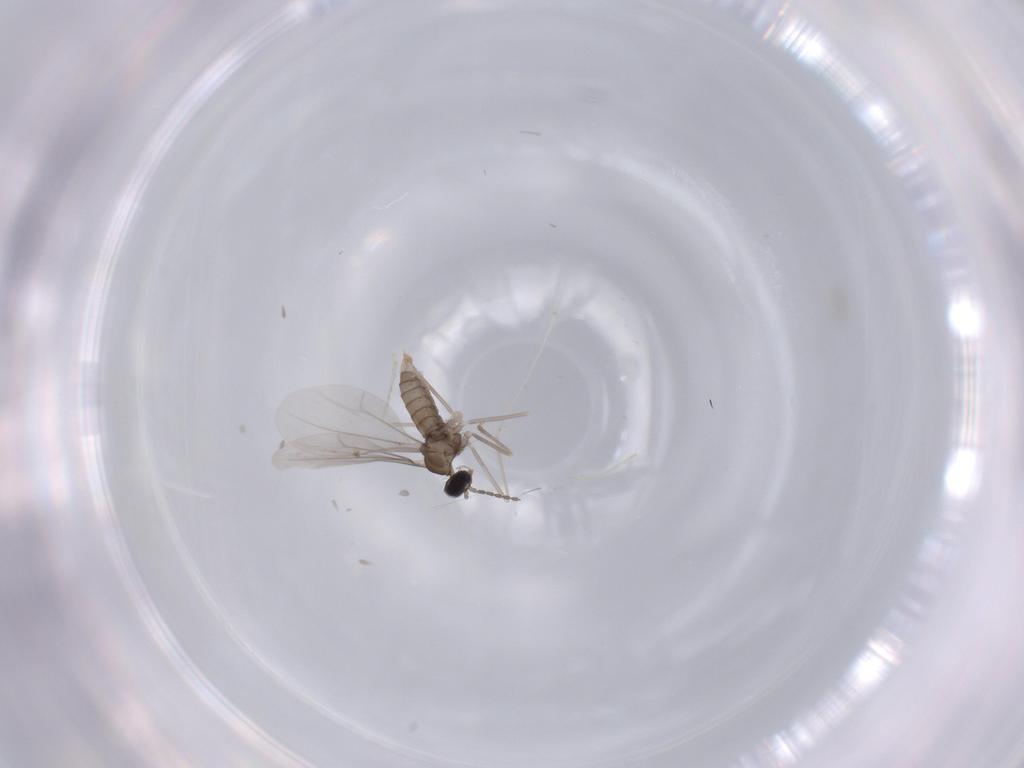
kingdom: Animalia
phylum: Arthropoda
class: Insecta
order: Diptera
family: Cecidomyiidae
